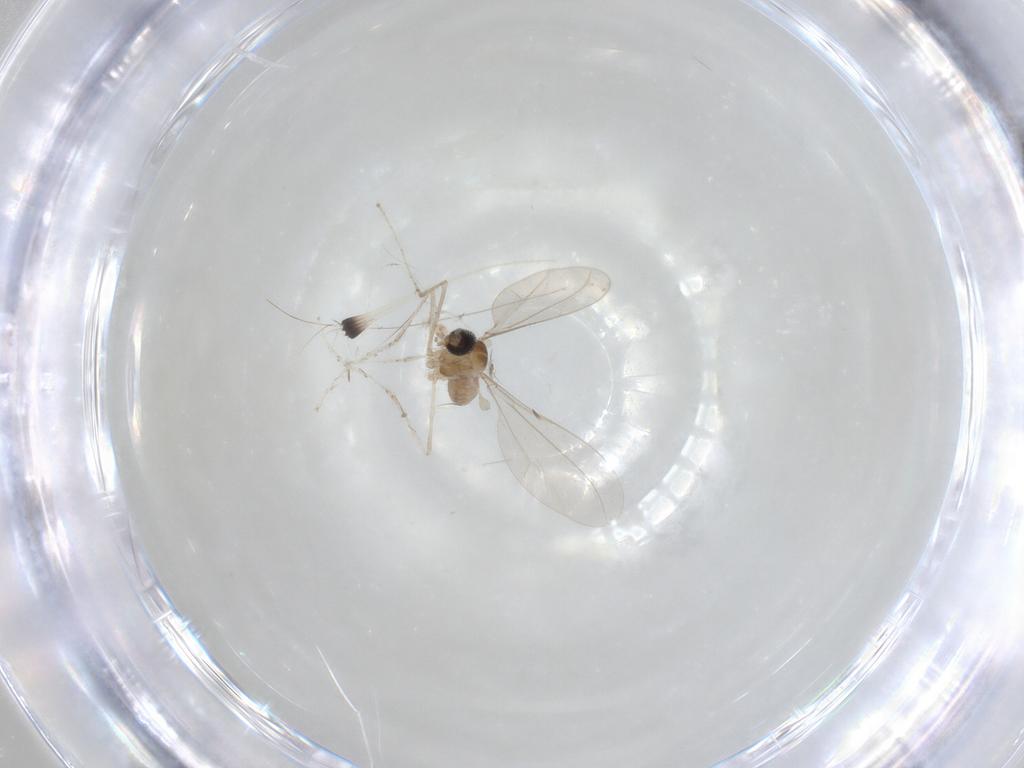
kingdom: Animalia
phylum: Arthropoda
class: Insecta
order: Diptera
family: Cecidomyiidae
